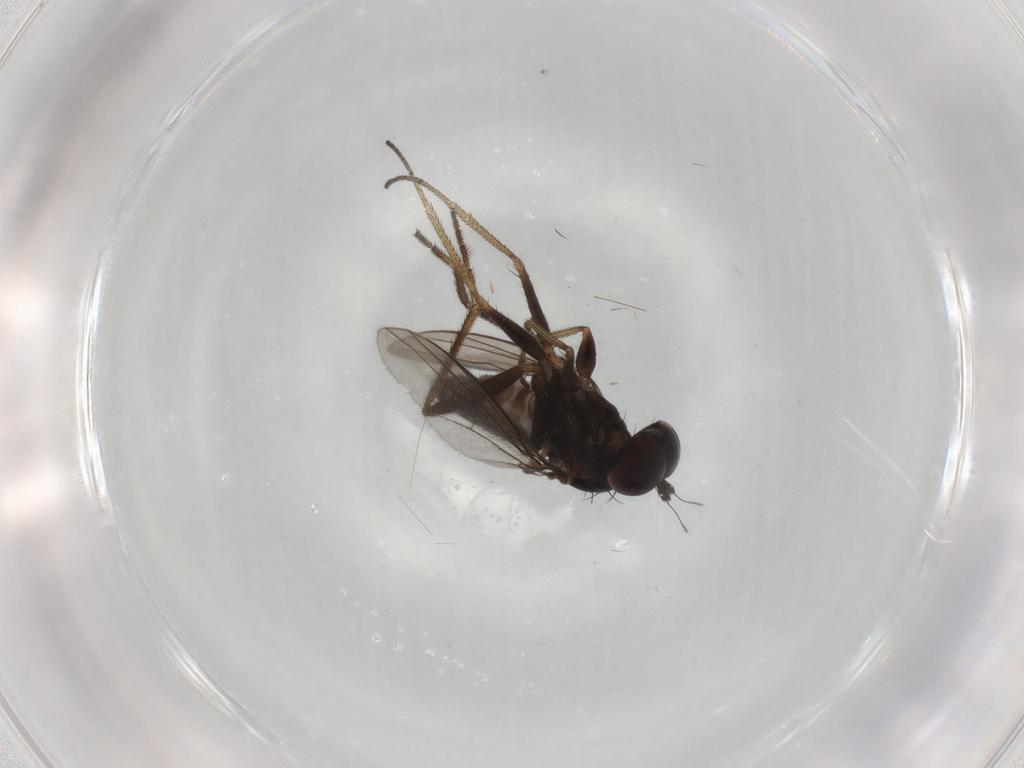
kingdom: Animalia
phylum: Arthropoda
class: Insecta
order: Diptera
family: Dolichopodidae
